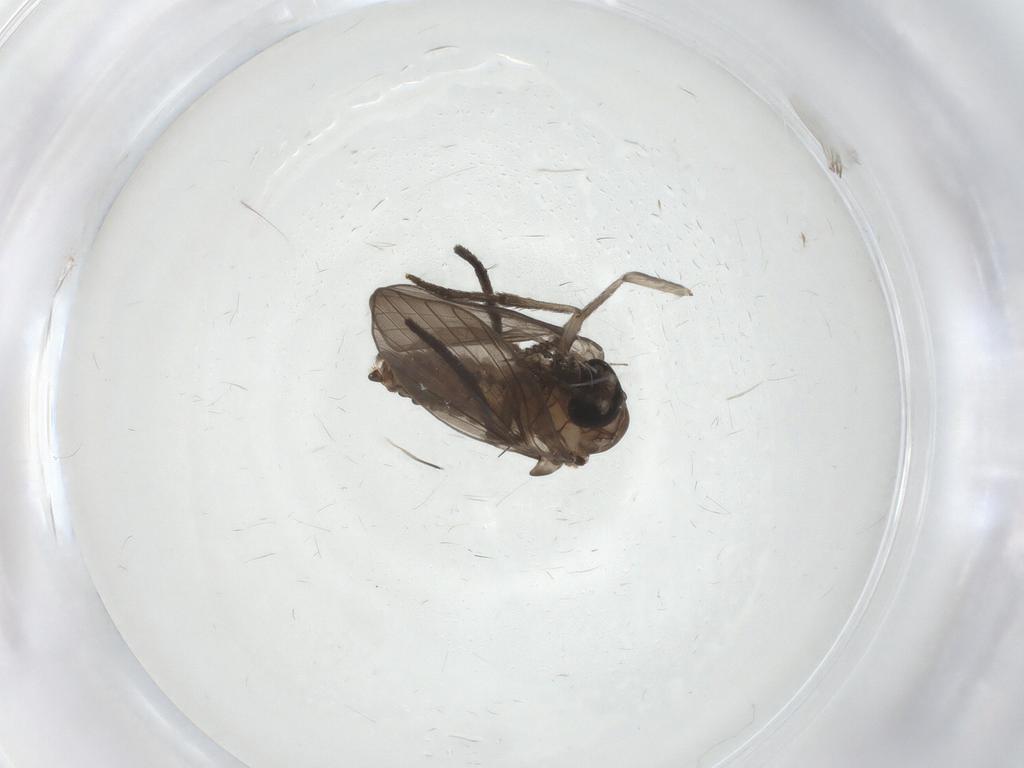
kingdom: Animalia
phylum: Arthropoda
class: Insecta
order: Diptera
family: Psychodidae
